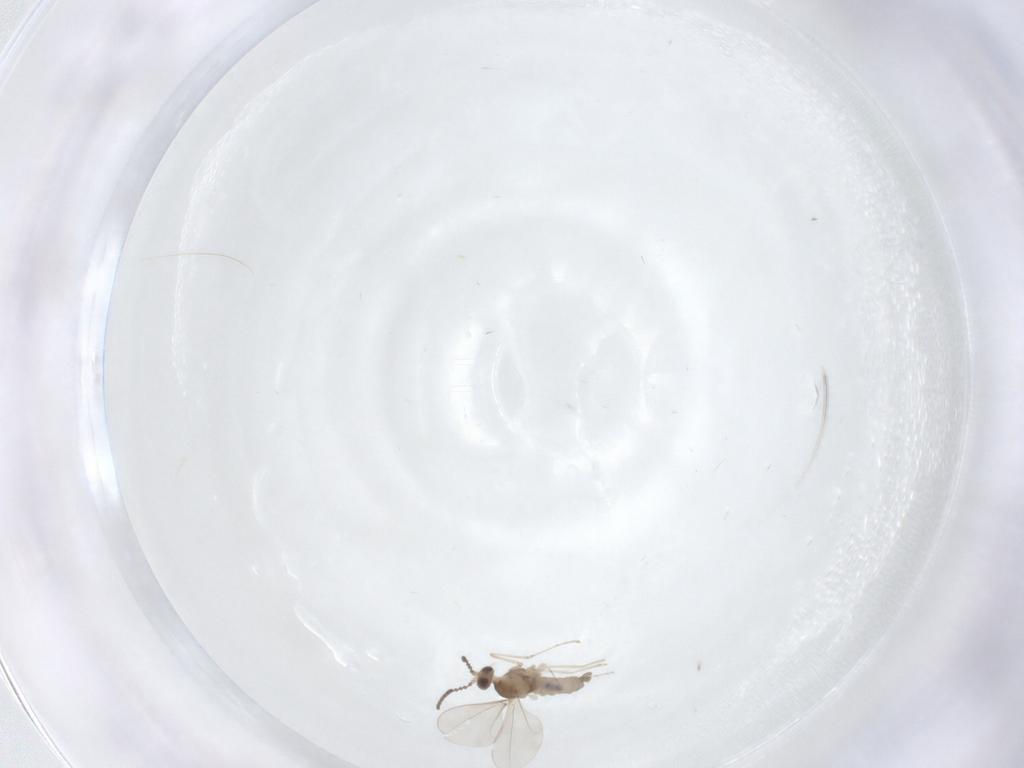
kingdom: Animalia
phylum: Arthropoda
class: Insecta
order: Diptera
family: Cecidomyiidae
